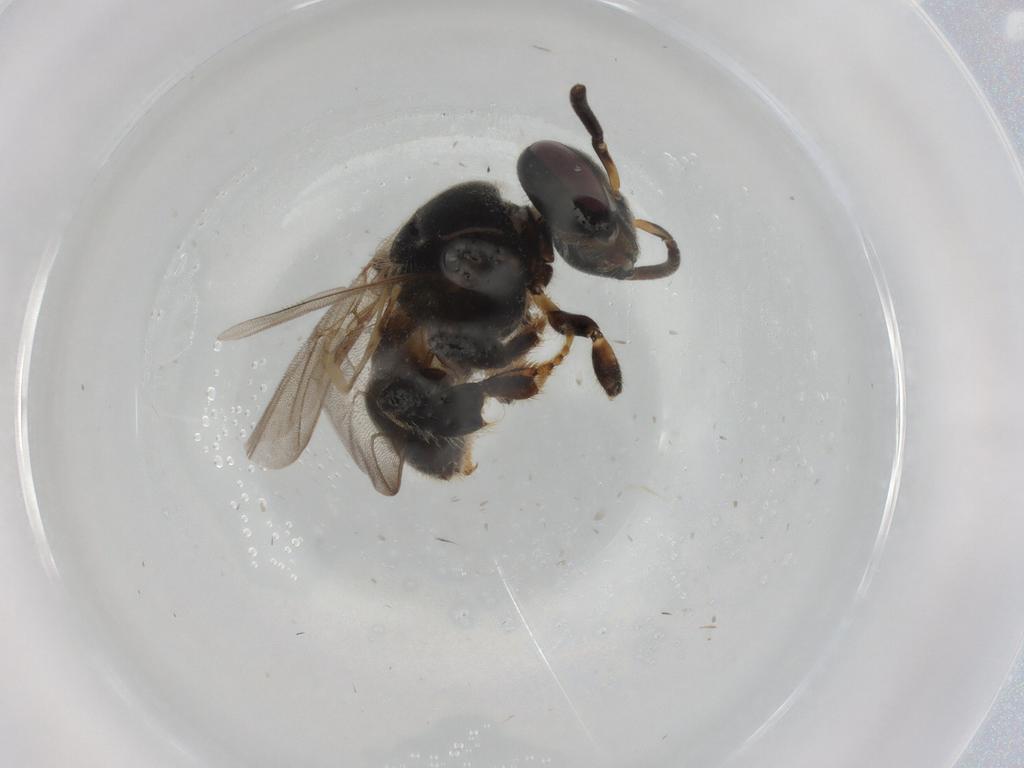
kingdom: Animalia
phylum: Arthropoda
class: Insecta
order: Hymenoptera
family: Apidae
